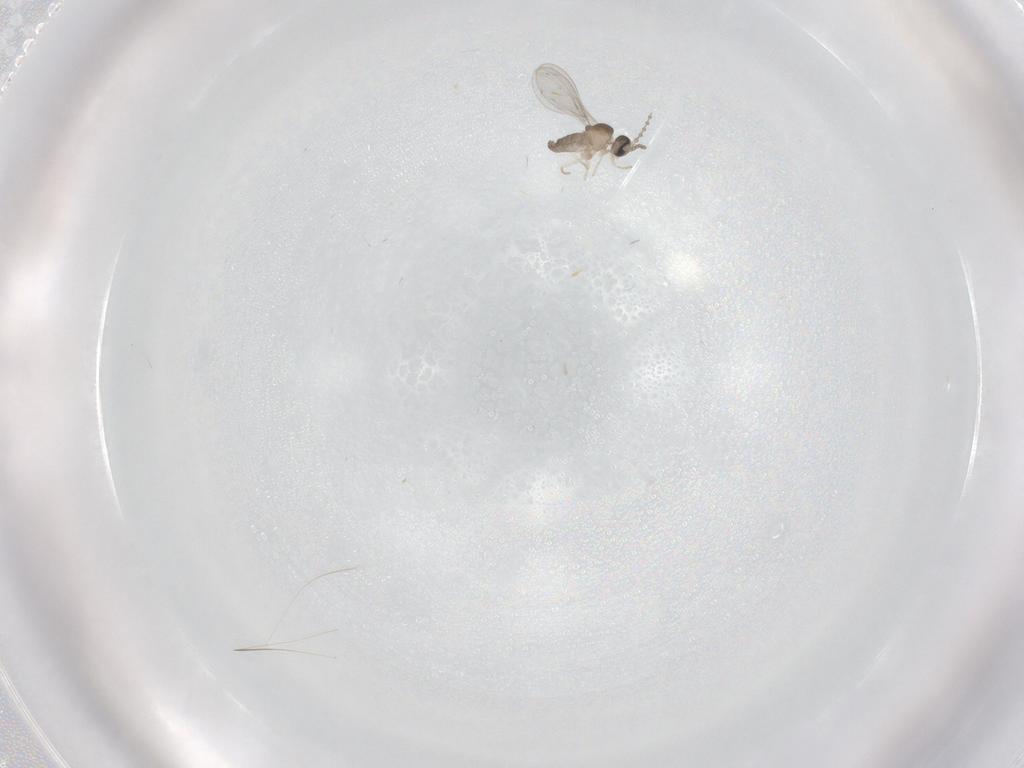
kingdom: Animalia
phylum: Arthropoda
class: Insecta
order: Diptera
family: Cecidomyiidae
